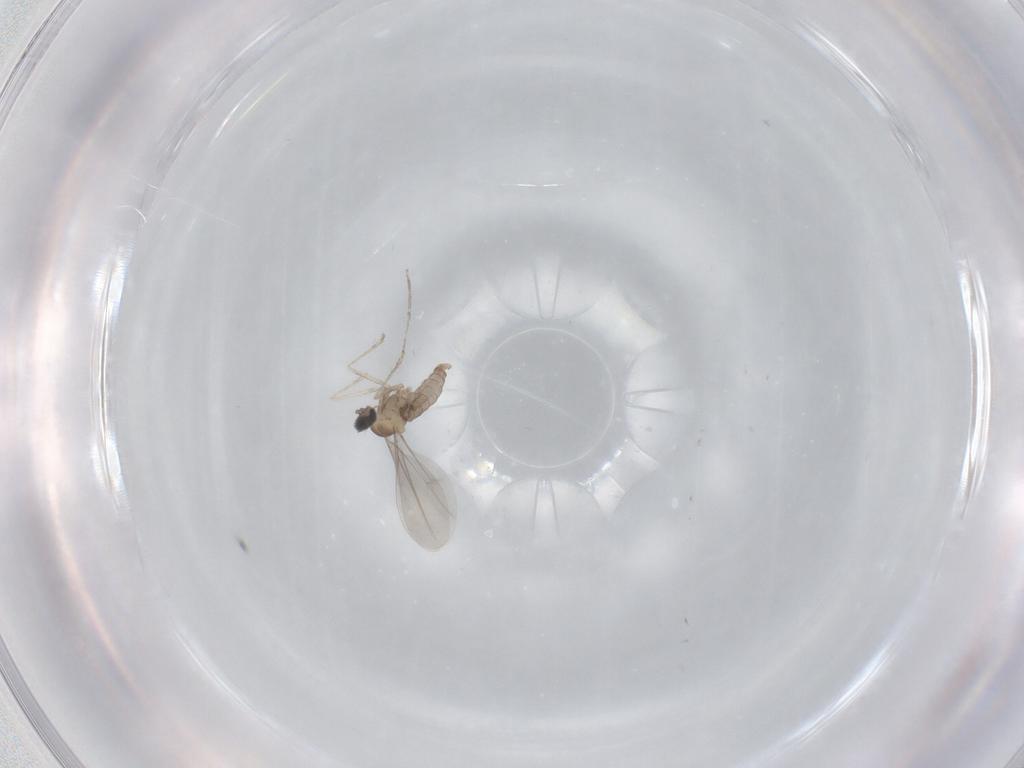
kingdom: Animalia
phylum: Arthropoda
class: Insecta
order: Diptera
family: Cecidomyiidae
